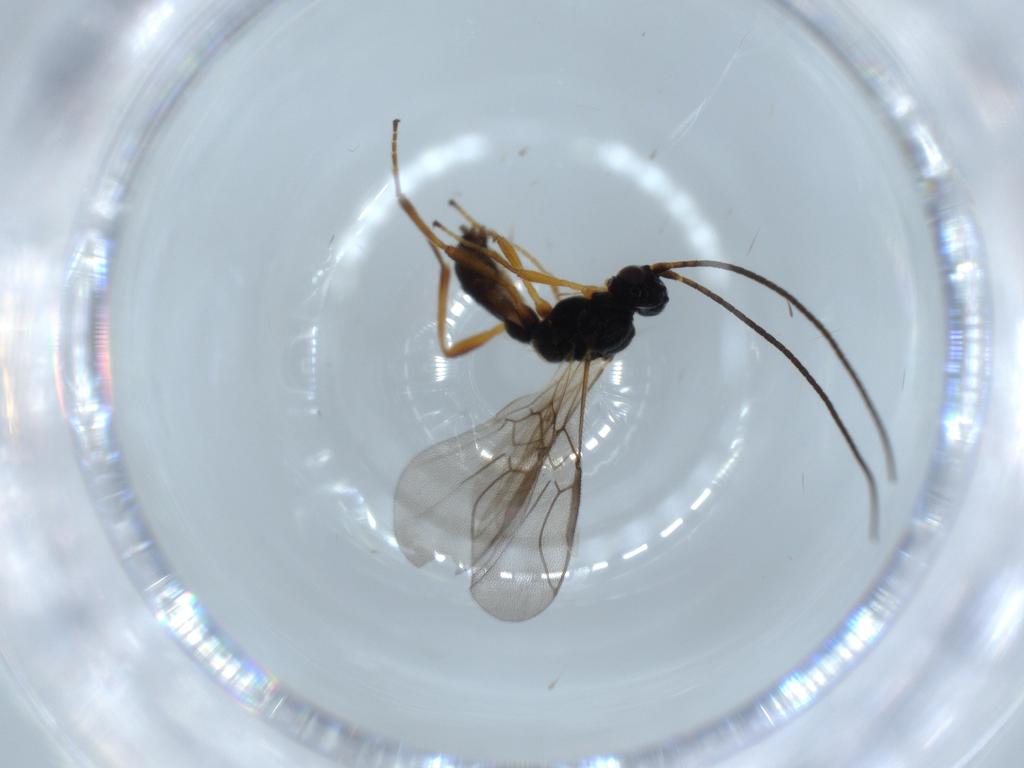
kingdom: Animalia
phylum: Arthropoda
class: Insecta
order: Hymenoptera
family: Braconidae
